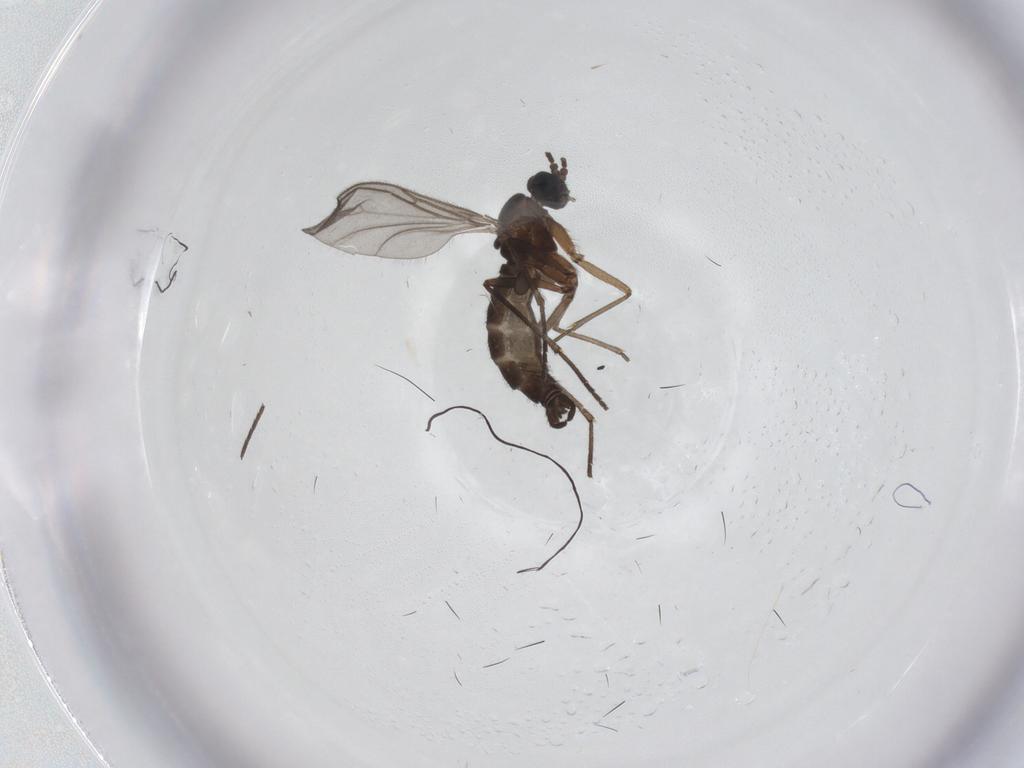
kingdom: Animalia
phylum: Arthropoda
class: Insecta
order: Diptera
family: Sciaridae
